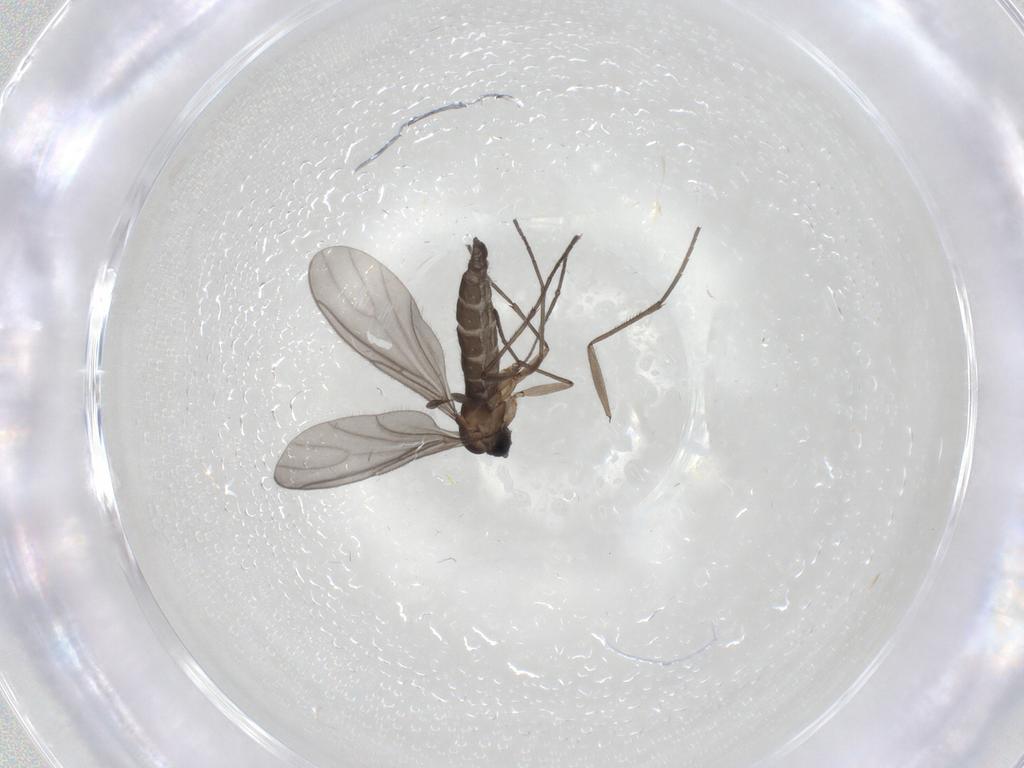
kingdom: Animalia
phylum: Arthropoda
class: Insecta
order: Diptera
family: Sciaridae
